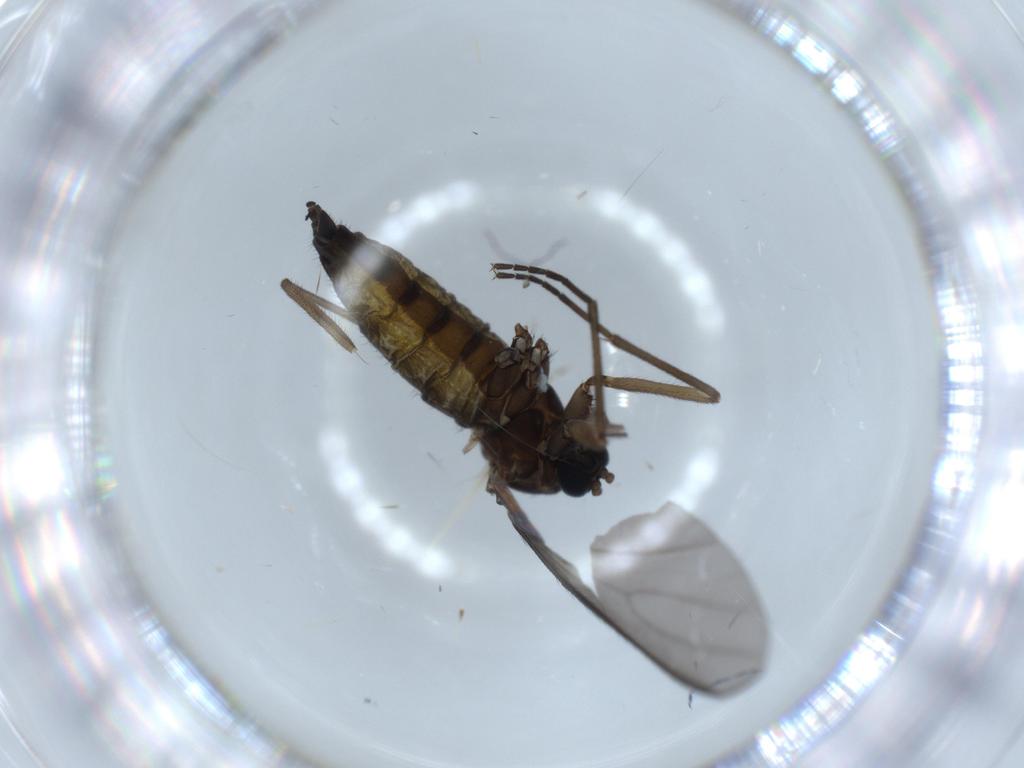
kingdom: Animalia
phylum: Arthropoda
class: Insecta
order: Diptera
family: Sciaridae
